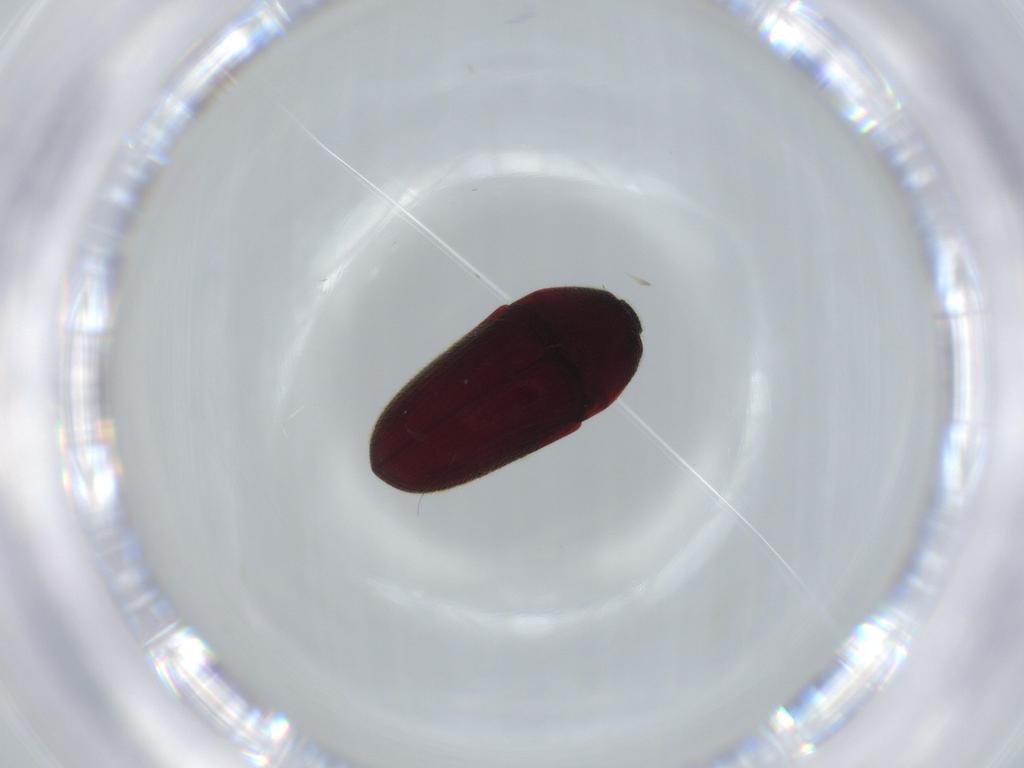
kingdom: Animalia
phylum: Arthropoda
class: Insecta
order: Coleoptera
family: Throscidae
